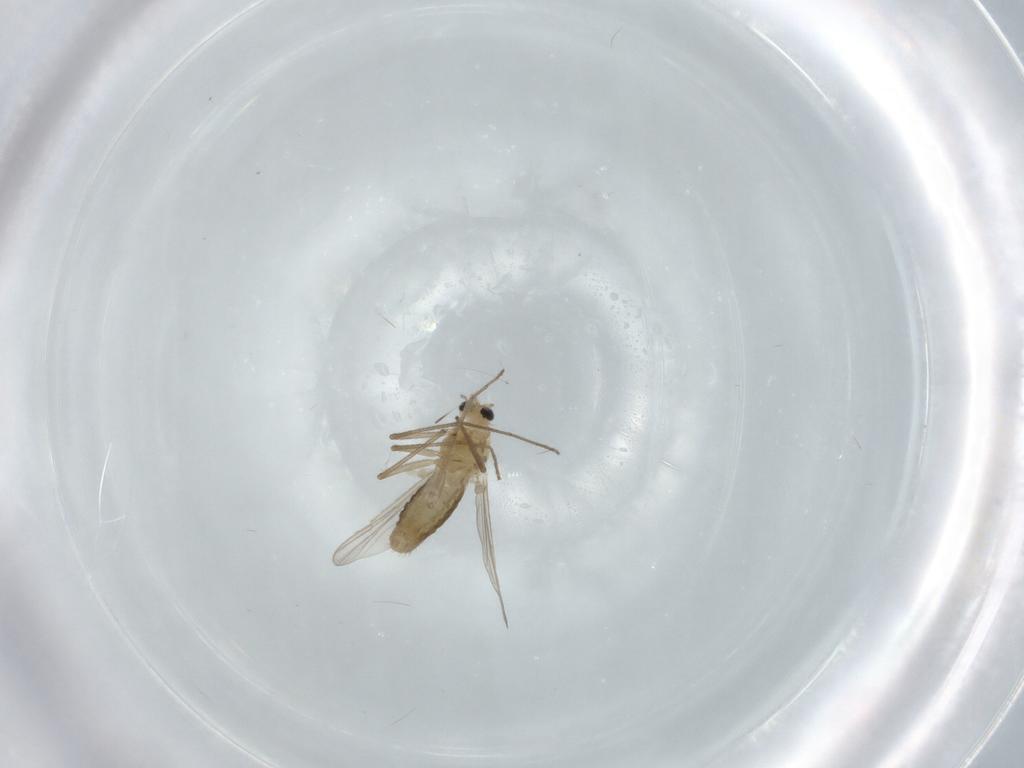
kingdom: Animalia
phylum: Arthropoda
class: Insecta
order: Diptera
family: Chironomidae
